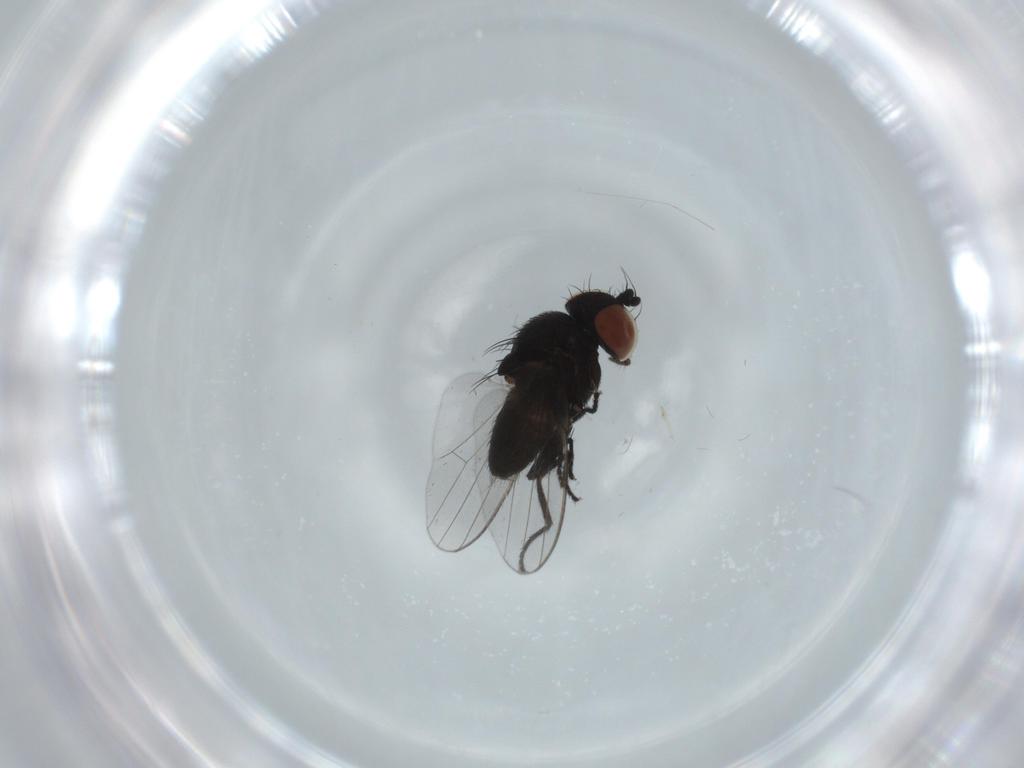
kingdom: Animalia
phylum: Arthropoda
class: Insecta
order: Diptera
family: Milichiidae
